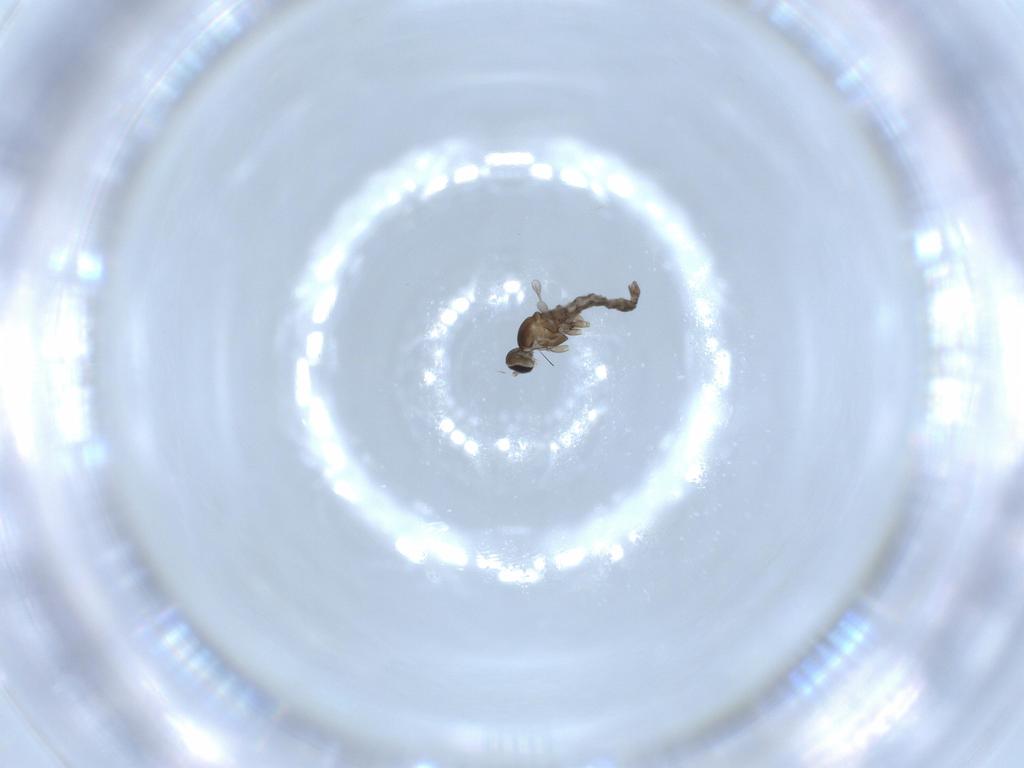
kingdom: Animalia
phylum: Arthropoda
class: Insecta
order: Diptera
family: Cecidomyiidae
